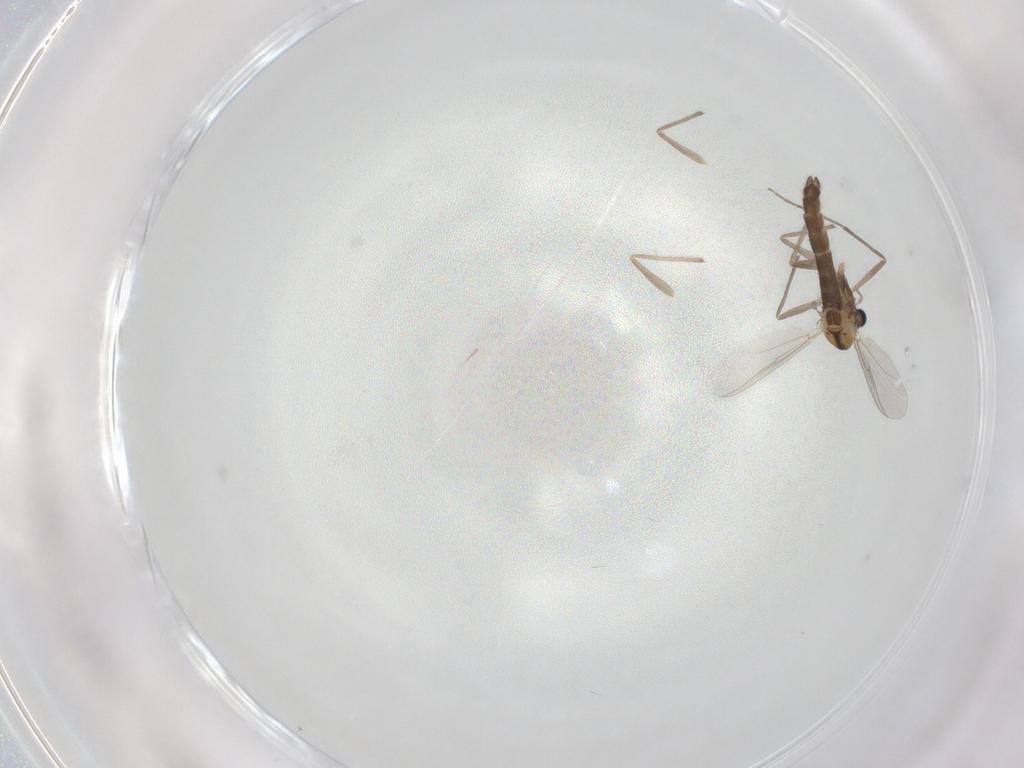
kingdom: Animalia
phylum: Arthropoda
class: Insecta
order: Diptera
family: Chironomidae
